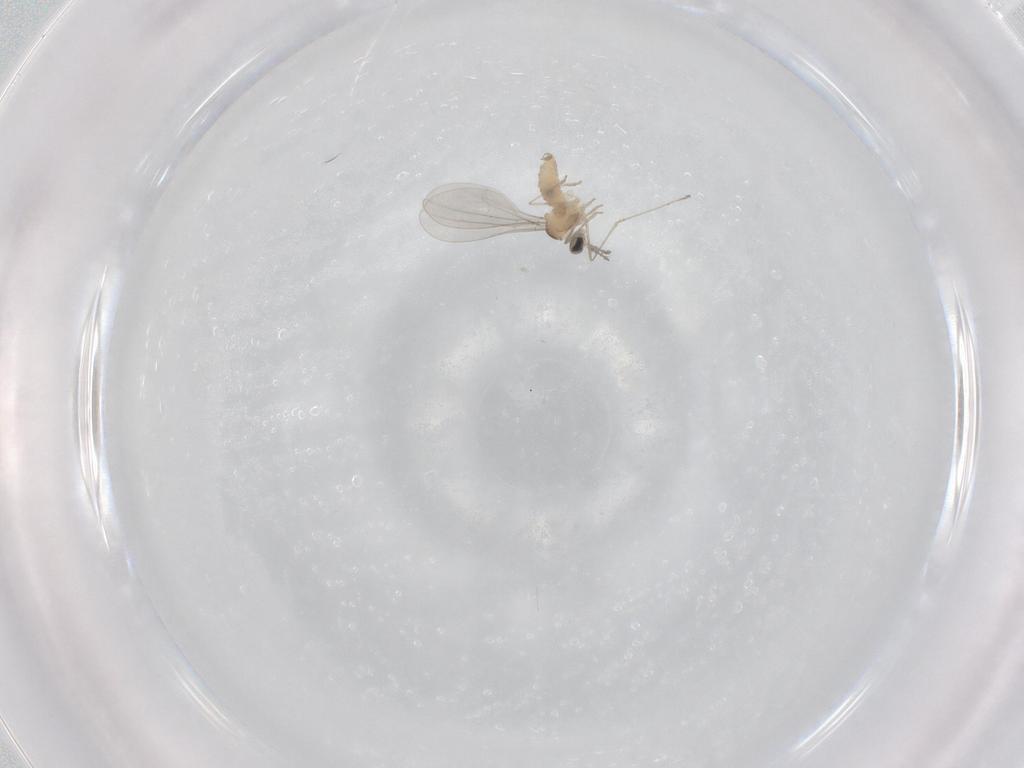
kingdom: Animalia
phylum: Arthropoda
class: Insecta
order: Diptera
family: Cecidomyiidae
